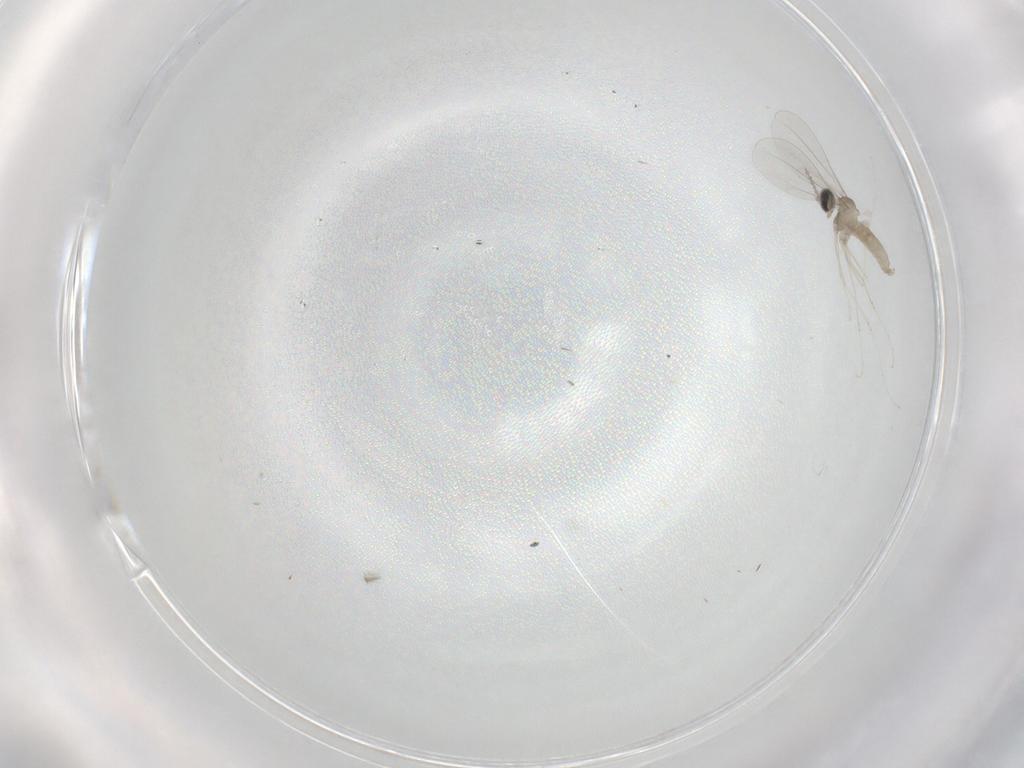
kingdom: Animalia
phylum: Arthropoda
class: Insecta
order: Diptera
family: Cecidomyiidae
